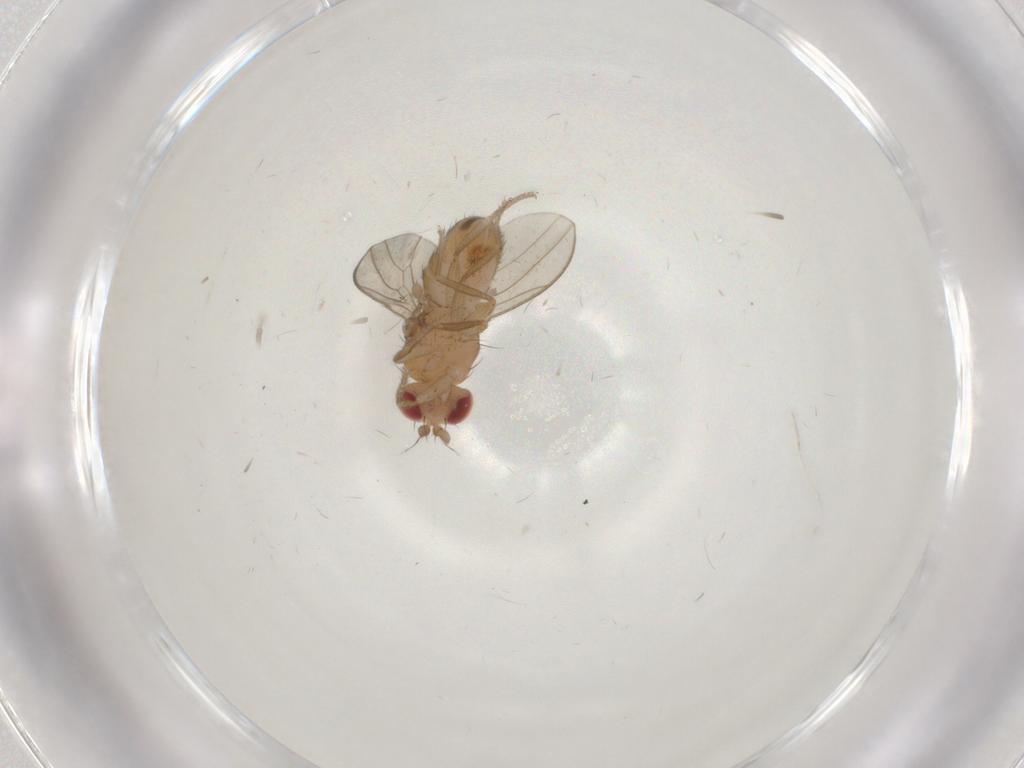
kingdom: Animalia
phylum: Arthropoda
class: Insecta
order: Diptera
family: Drosophilidae
